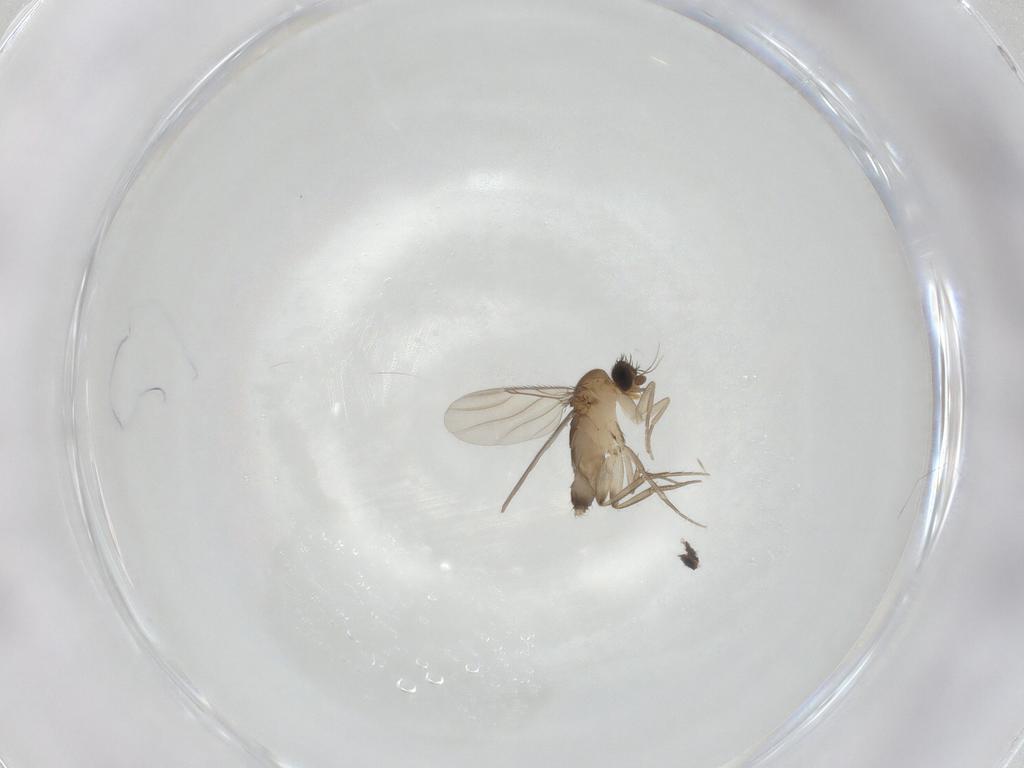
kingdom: Animalia
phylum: Arthropoda
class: Insecta
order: Diptera
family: Phoridae
